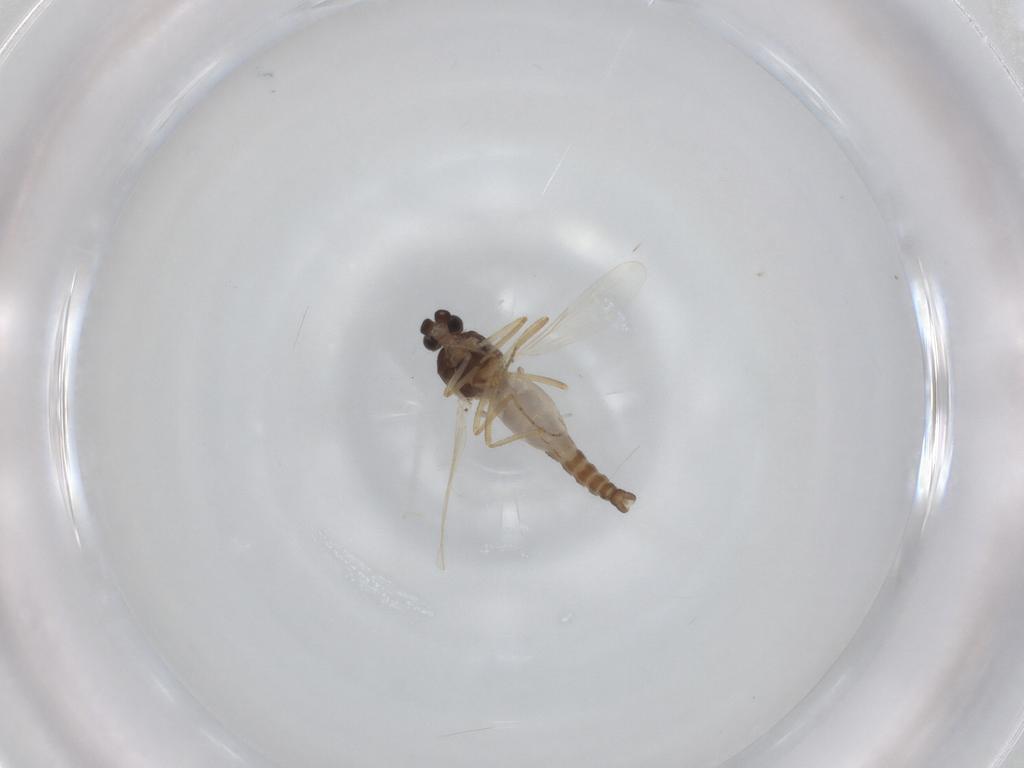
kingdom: Animalia
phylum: Arthropoda
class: Insecta
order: Diptera
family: Ceratopogonidae
